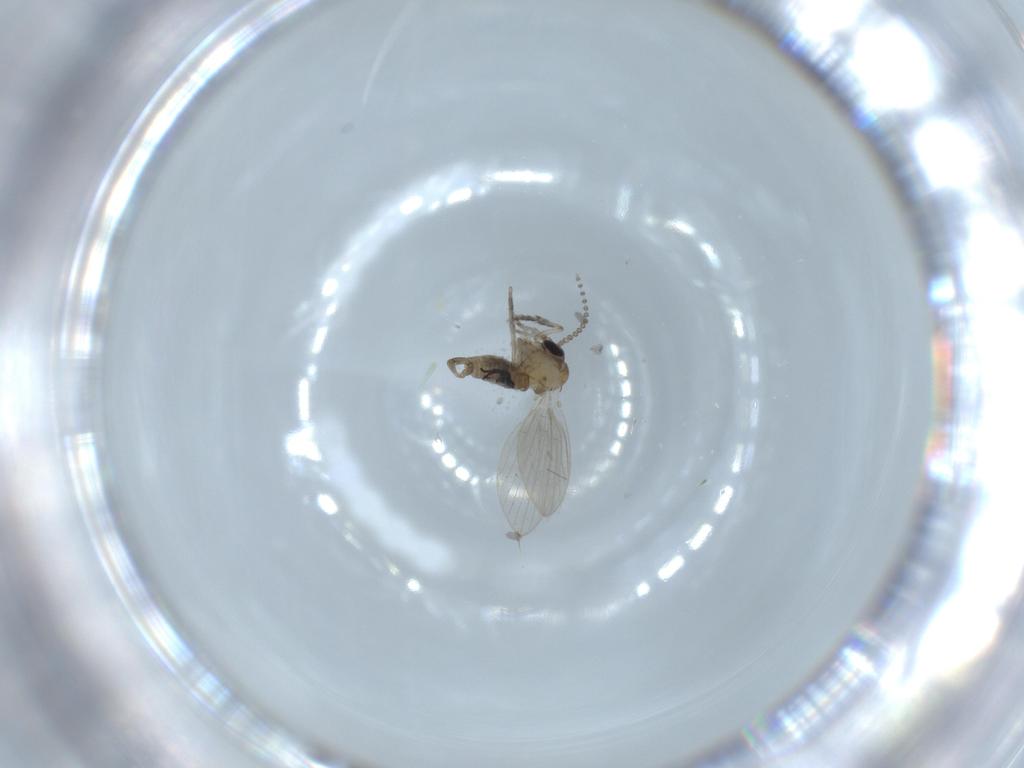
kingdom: Animalia
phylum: Arthropoda
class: Insecta
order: Diptera
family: Psychodidae
